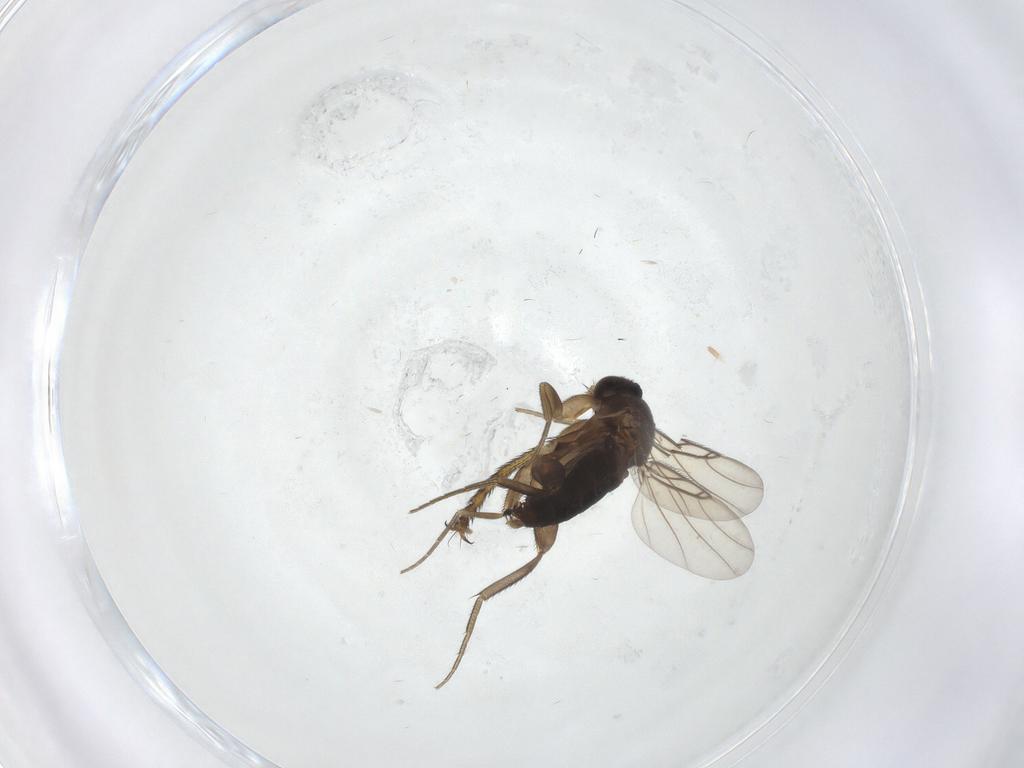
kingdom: Animalia
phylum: Arthropoda
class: Insecta
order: Diptera
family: Phoridae
